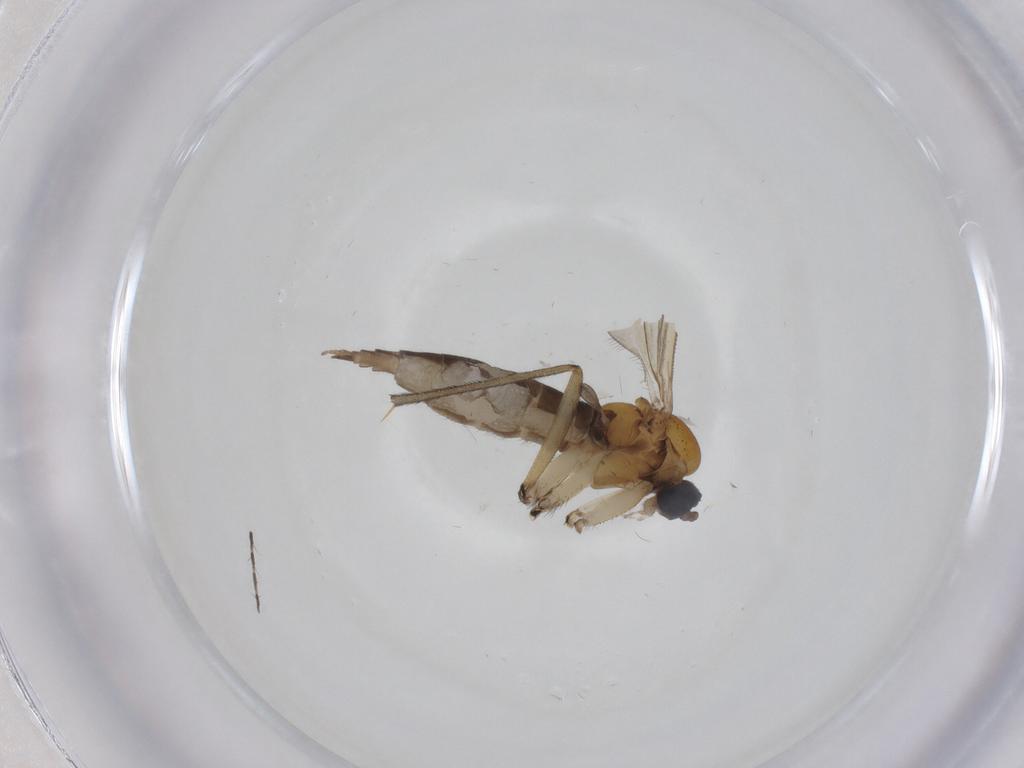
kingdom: Animalia
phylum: Arthropoda
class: Insecta
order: Diptera
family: Sciaridae
